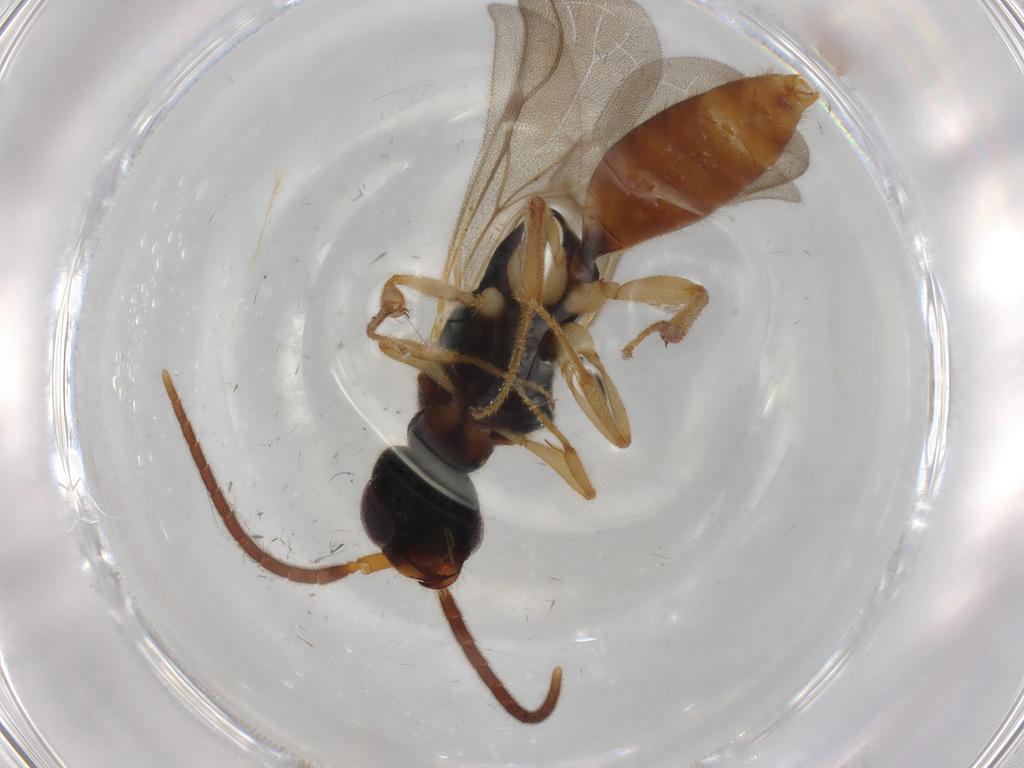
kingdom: Animalia
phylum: Arthropoda
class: Insecta
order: Hymenoptera
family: Bethylidae
